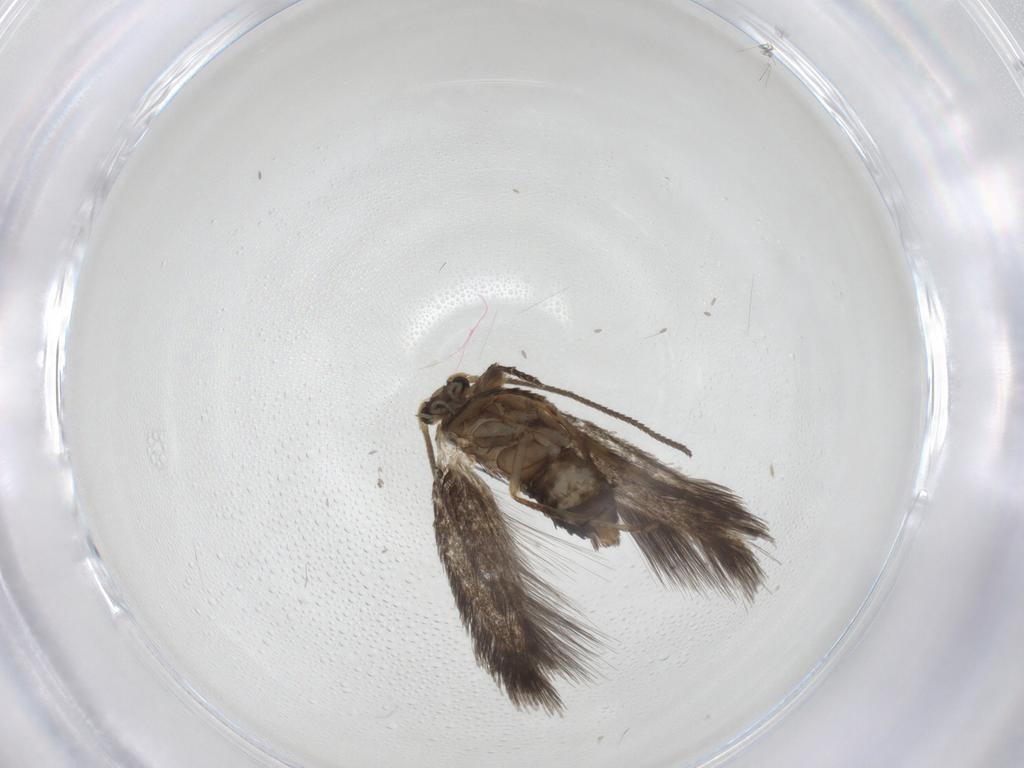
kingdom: Animalia
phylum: Arthropoda
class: Insecta
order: Lepidoptera
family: Nepticulidae
